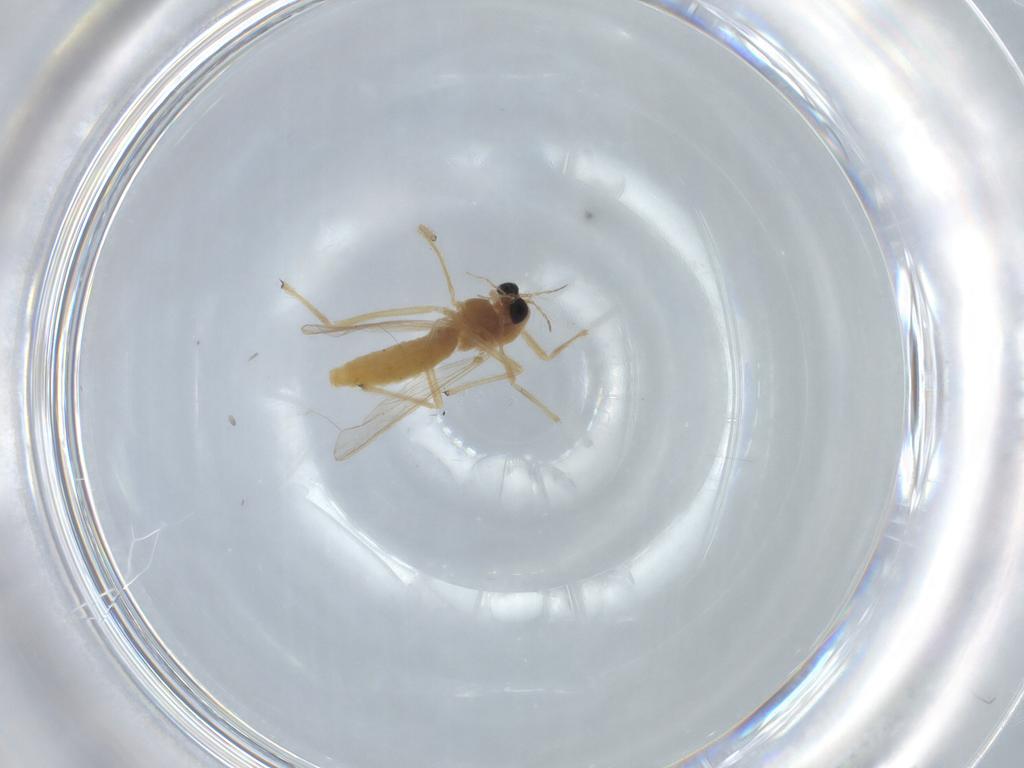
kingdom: Animalia
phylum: Arthropoda
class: Insecta
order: Diptera
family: Chironomidae
